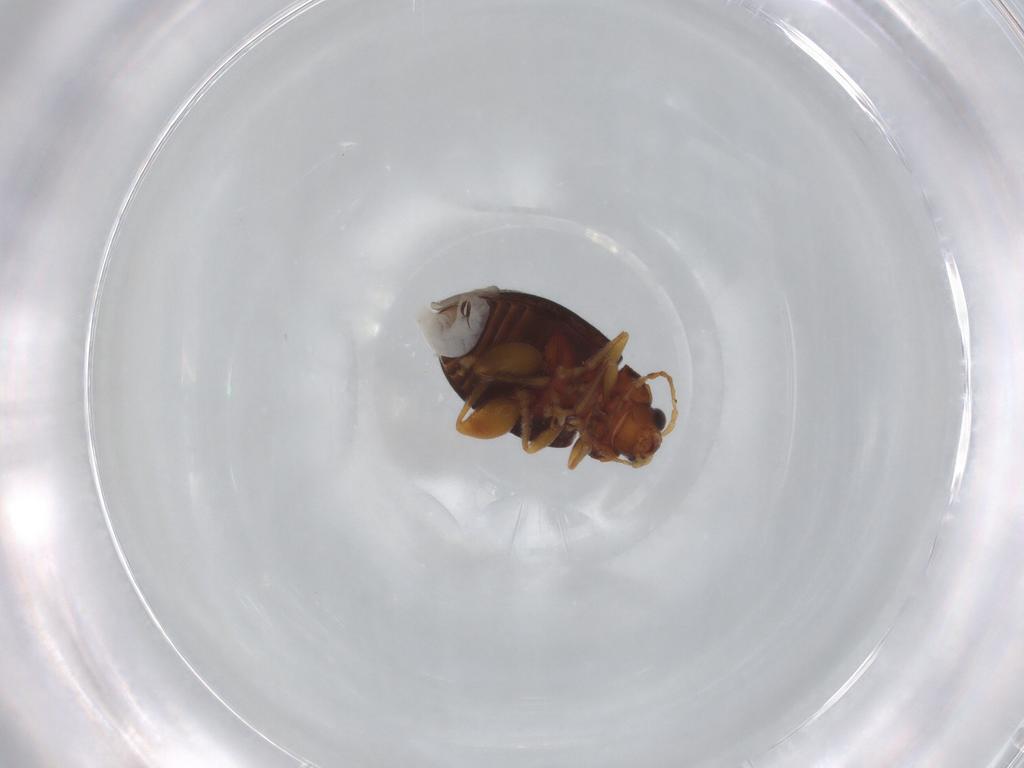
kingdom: Animalia
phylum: Arthropoda
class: Insecta
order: Coleoptera
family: Chrysomelidae
